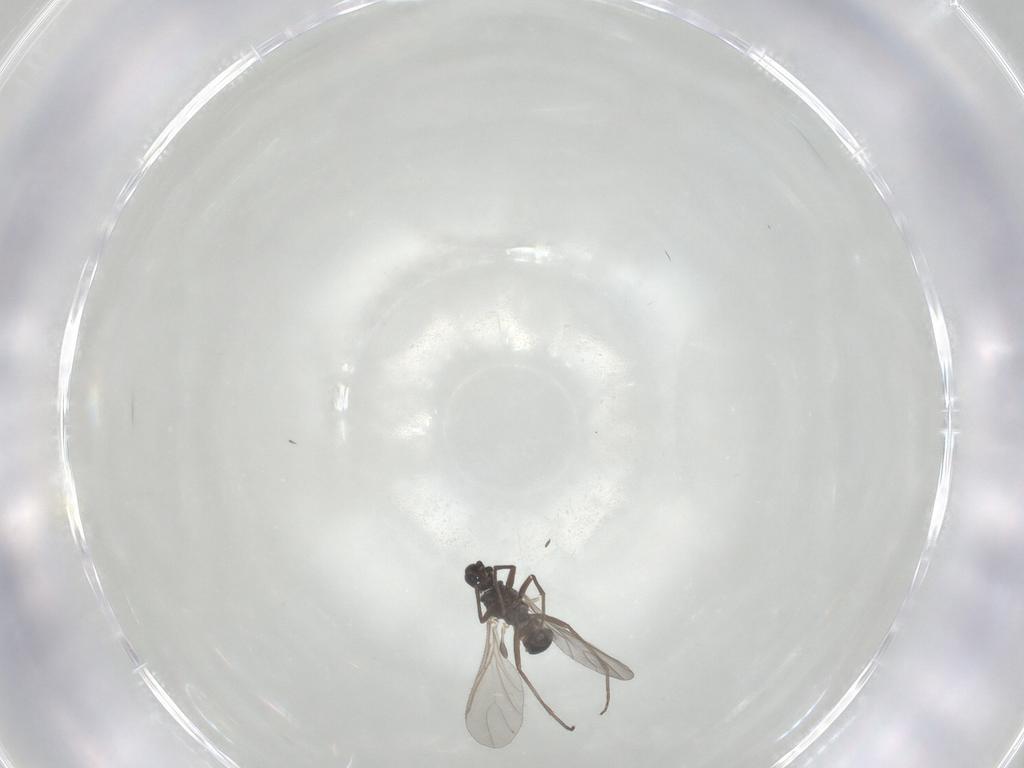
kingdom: Animalia
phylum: Arthropoda
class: Insecta
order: Diptera
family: Sciaridae
